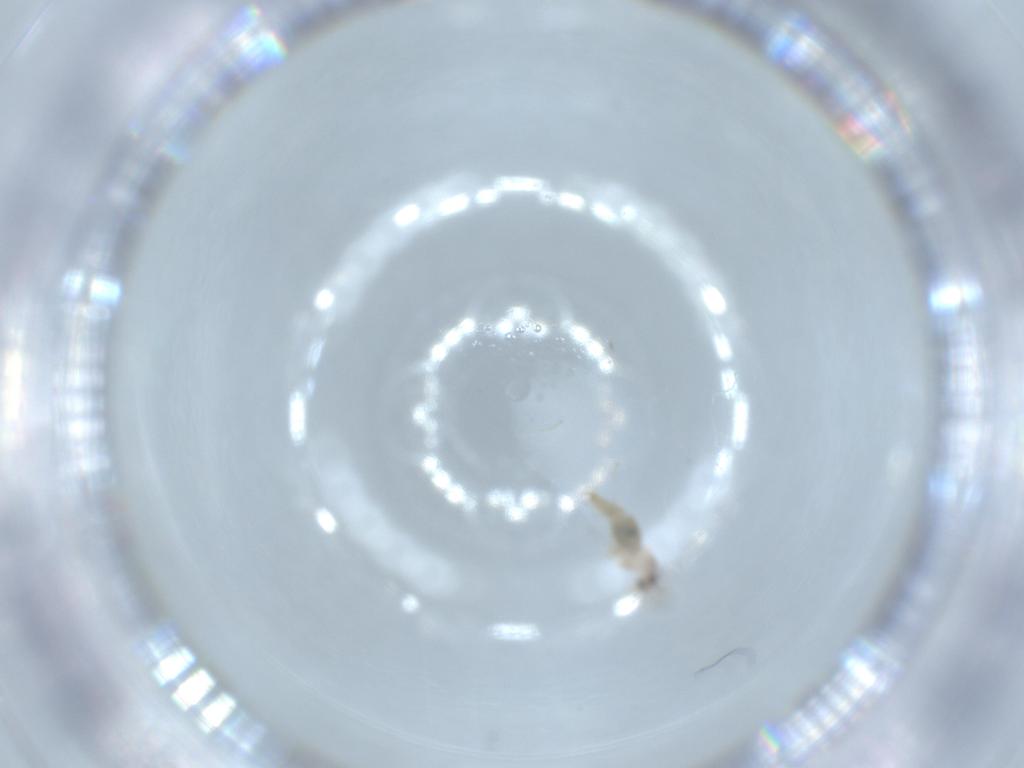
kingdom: Animalia
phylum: Arthropoda
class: Insecta
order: Diptera
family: Cecidomyiidae
